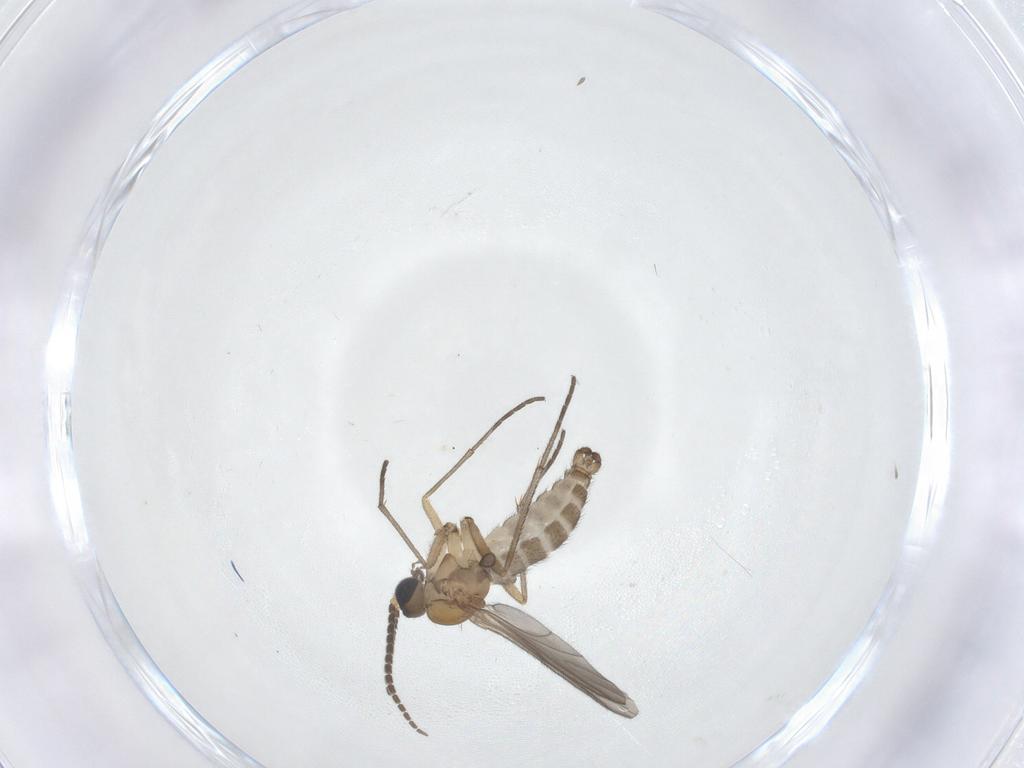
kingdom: Animalia
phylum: Arthropoda
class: Insecta
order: Diptera
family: Sciaridae
